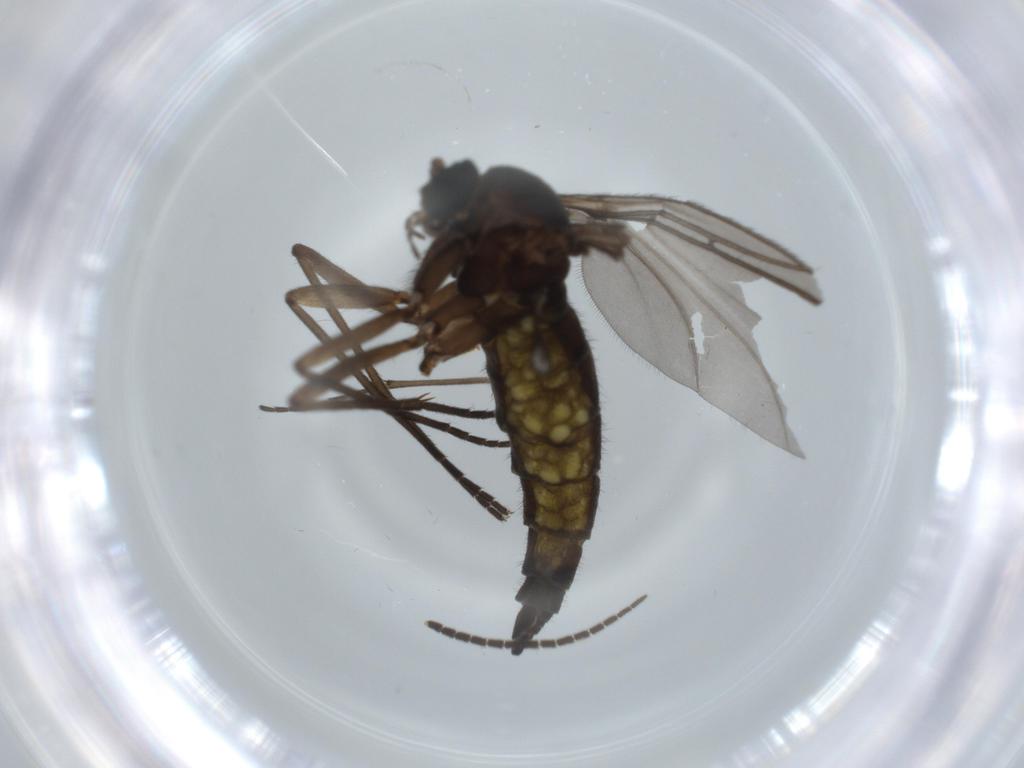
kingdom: Animalia
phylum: Arthropoda
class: Insecta
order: Diptera
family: Sciaridae
